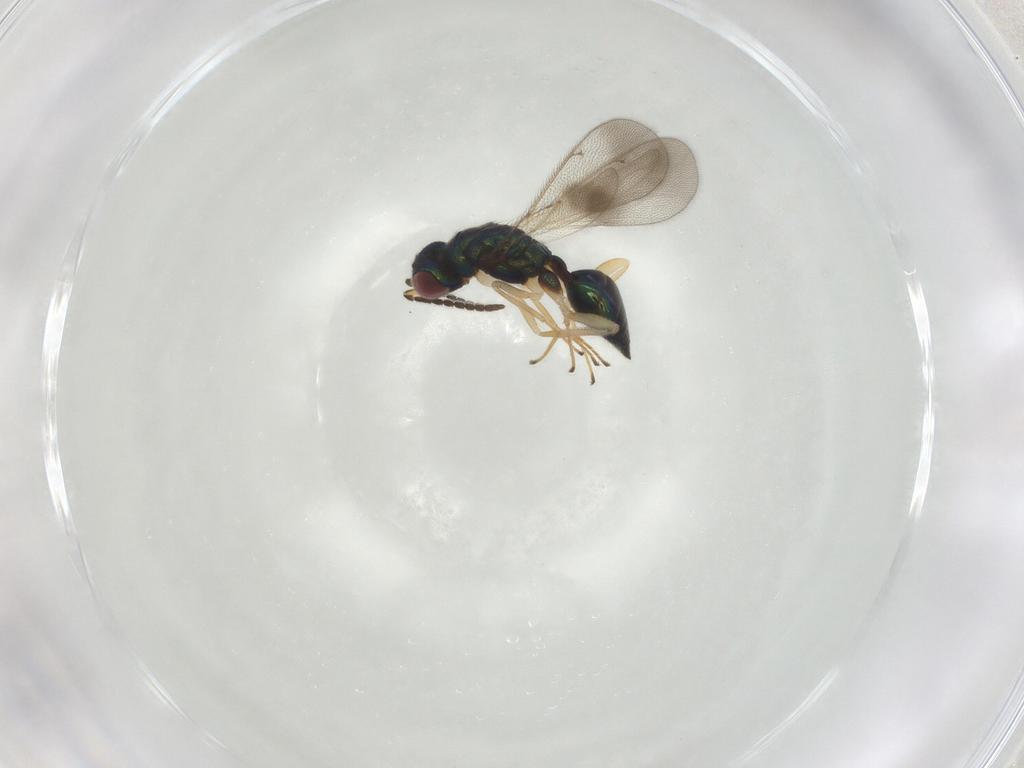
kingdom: Animalia
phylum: Arthropoda
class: Insecta
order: Hymenoptera
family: Tetracampidae
